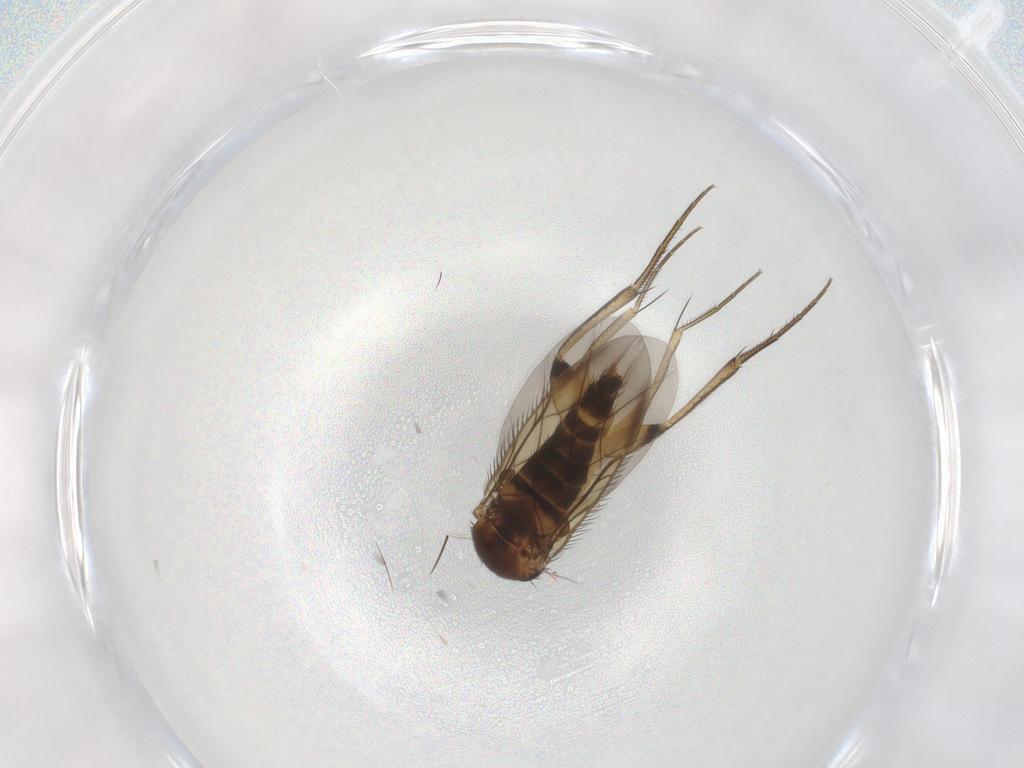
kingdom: Animalia
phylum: Arthropoda
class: Insecta
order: Diptera
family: Phoridae
